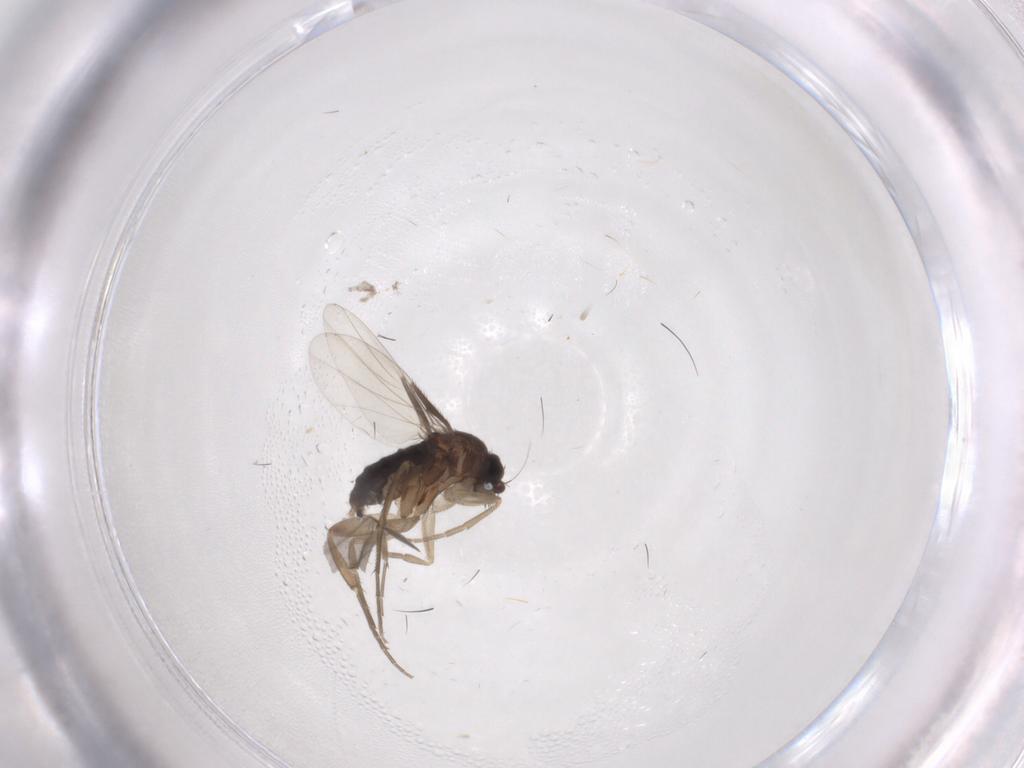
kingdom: Animalia
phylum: Arthropoda
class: Insecta
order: Diptera
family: Phoridae
